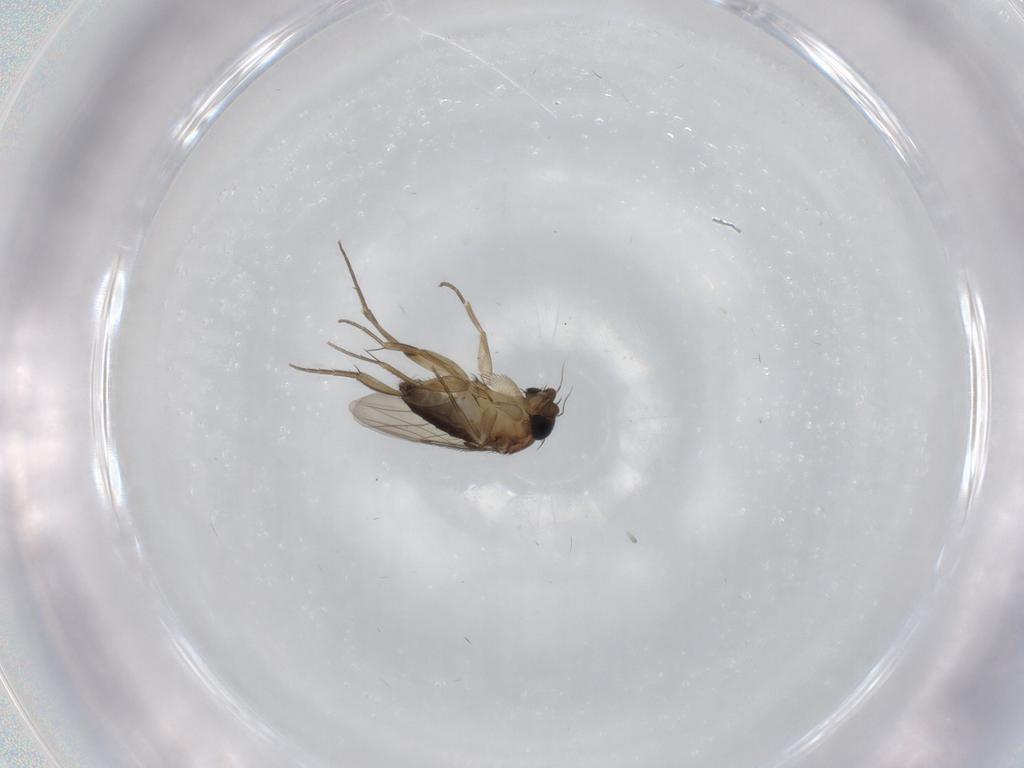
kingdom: Animalia
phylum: Arthropoda
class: Insecta
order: Diptera
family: Phoridae
